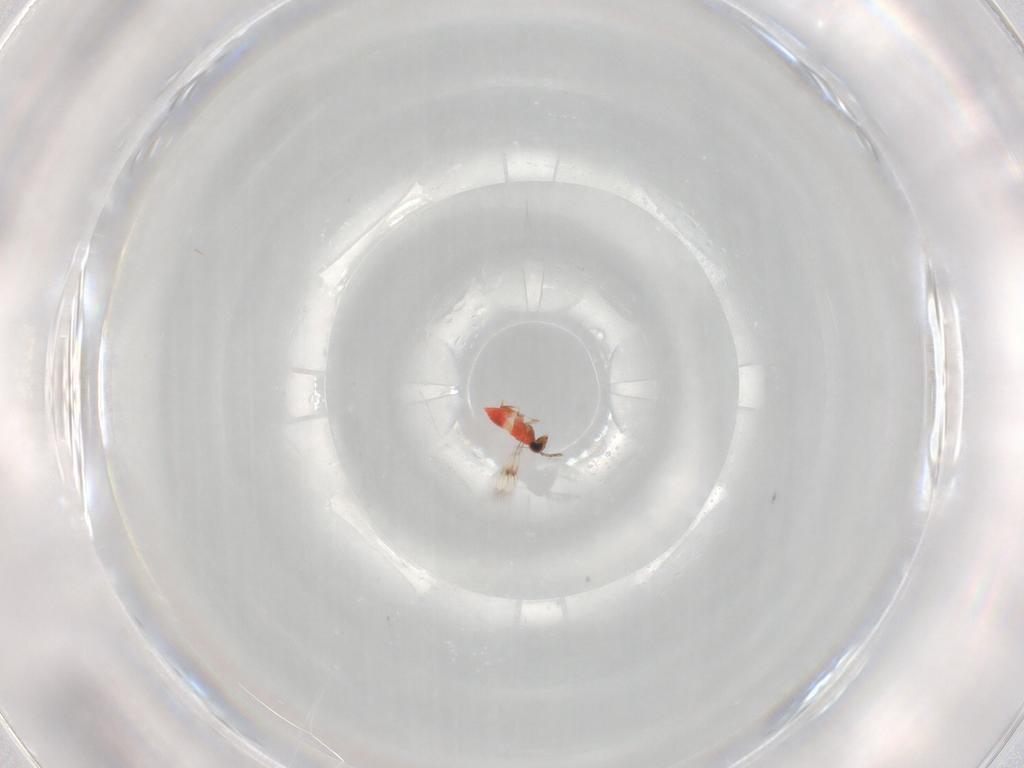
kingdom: Animalia
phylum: Arthropoda
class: Insecta
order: Hymenoptera
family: Trichogrammatidae
